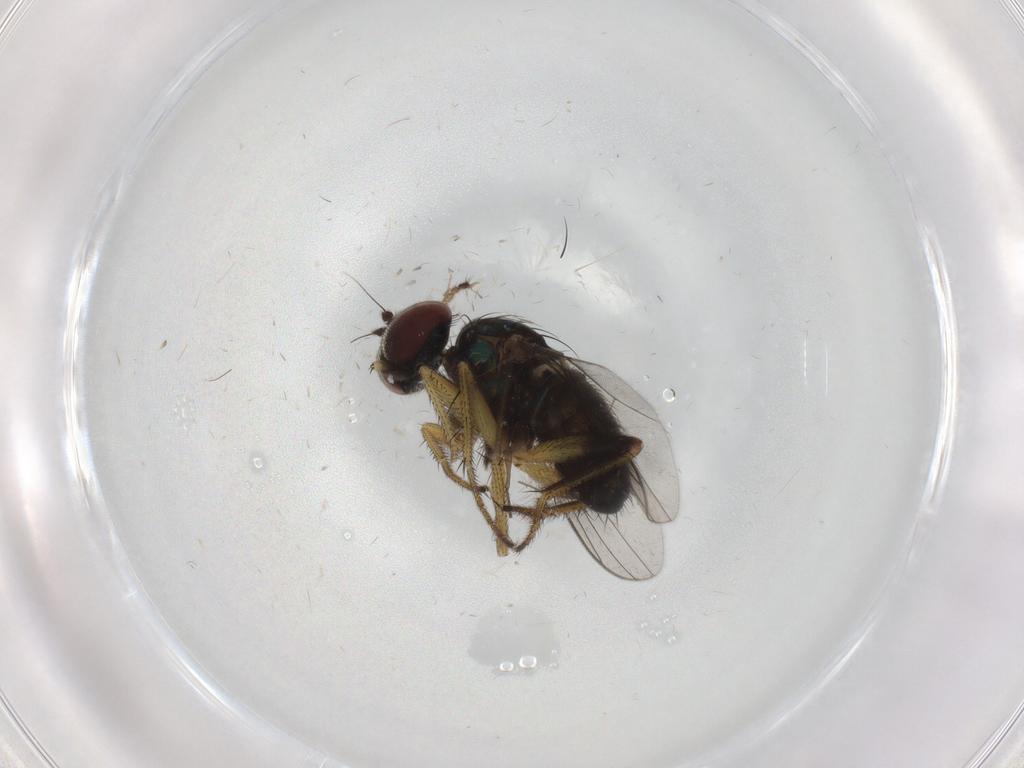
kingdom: Animalia
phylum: Arthropoda
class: Insecta
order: Diptera
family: Dolichopodidae
